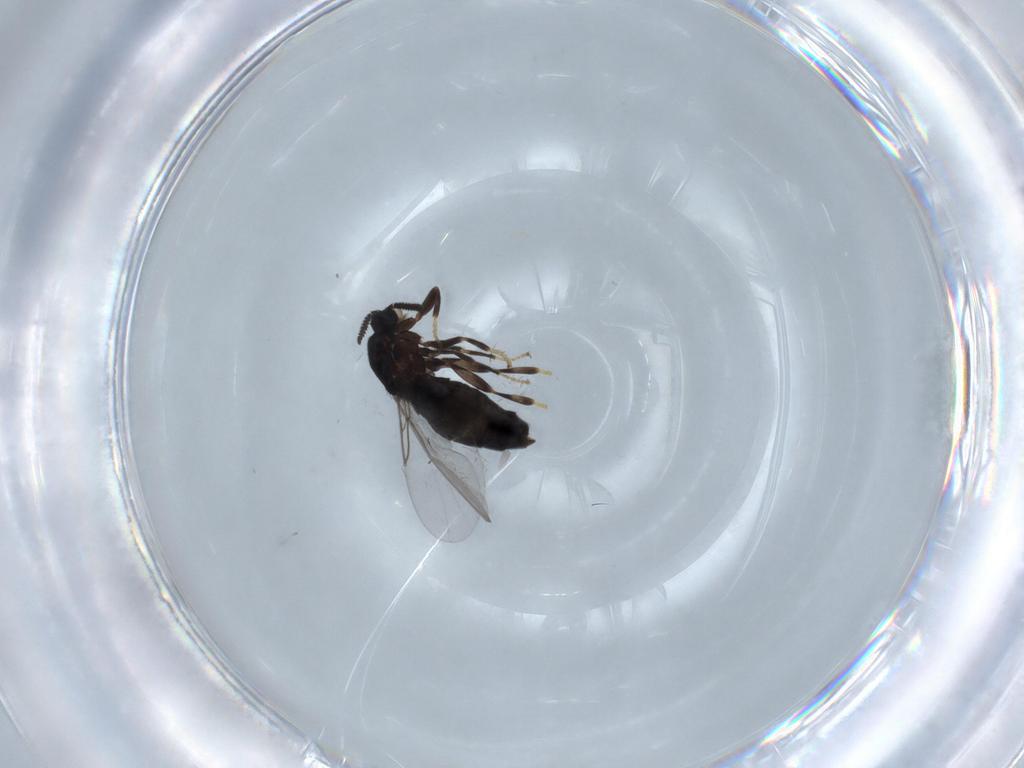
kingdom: Animalia
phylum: Arthropoda
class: Insecta
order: Diptera
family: Scatopsidae
